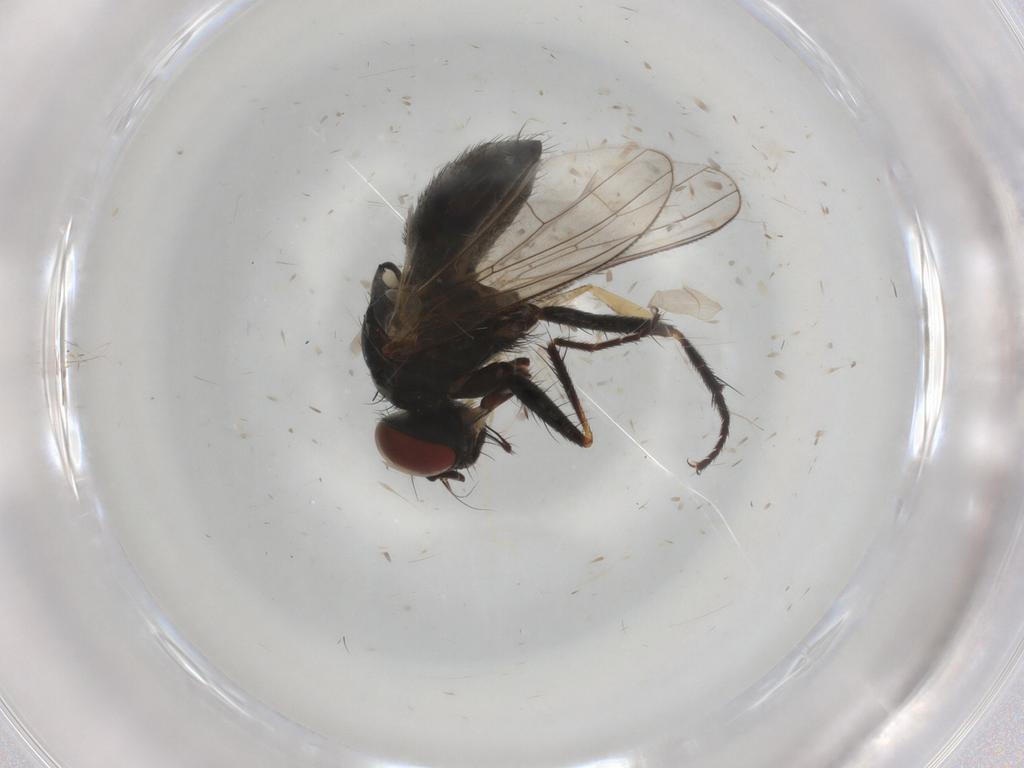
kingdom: Animalia
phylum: Arthropoda
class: Insecta
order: Diptera
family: Muscidae
